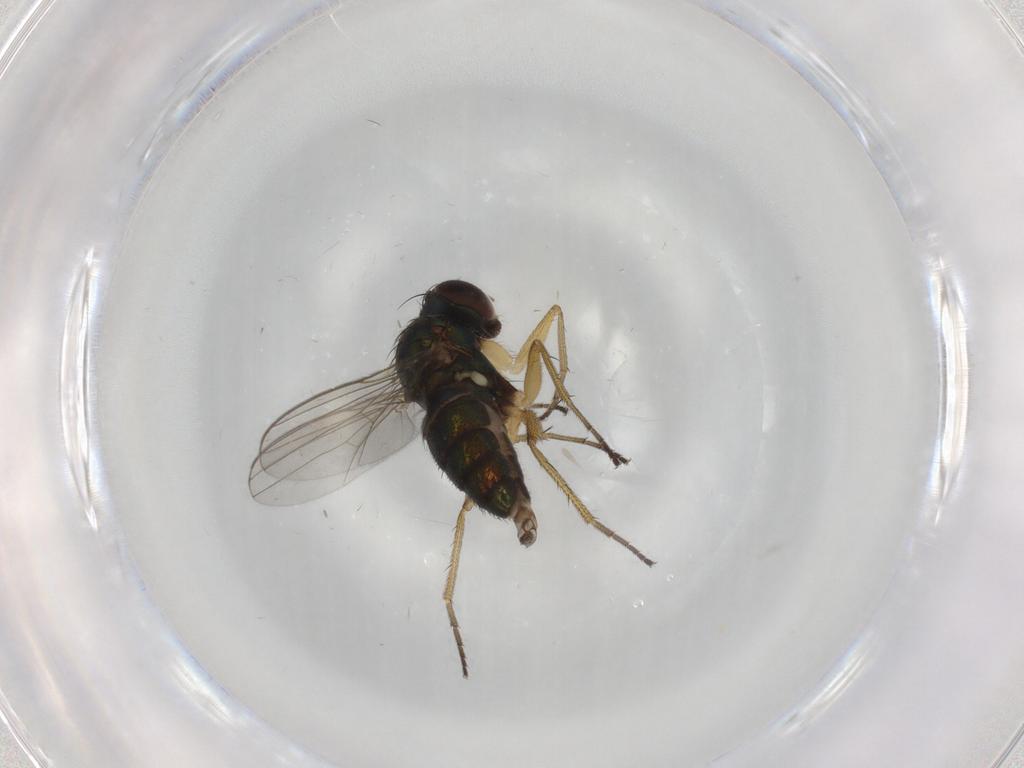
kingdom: Animalia
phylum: Arthropoda
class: Insecta
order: Diptera
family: Dolichopodidae
